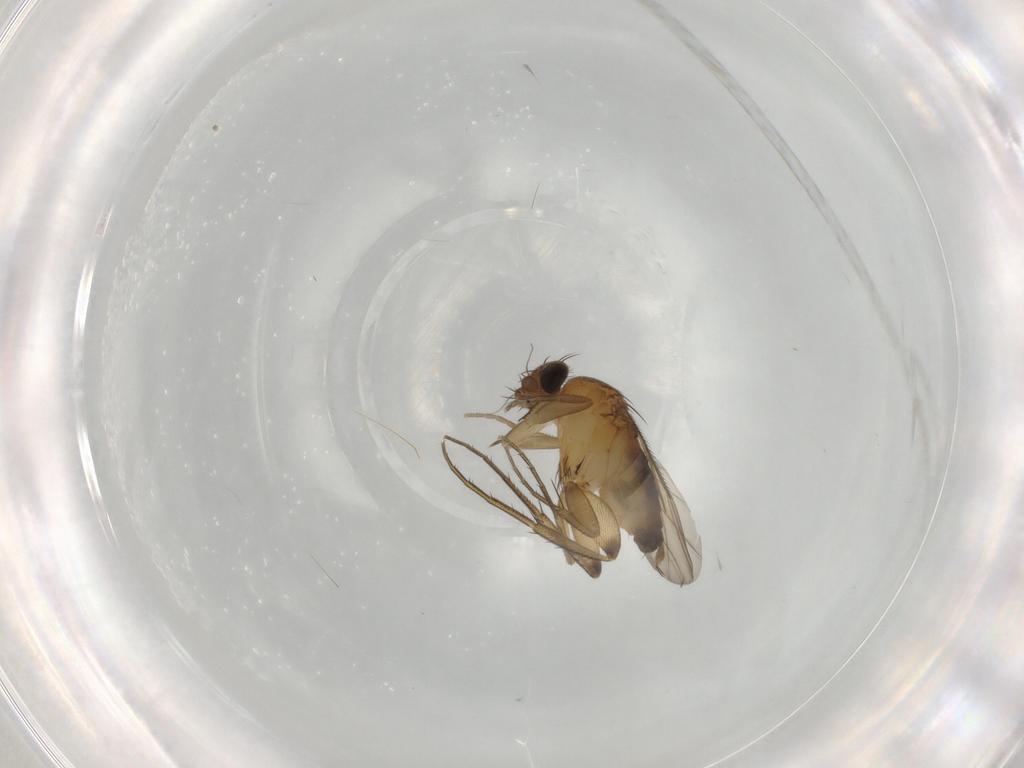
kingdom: Animalia
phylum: Arthropoda
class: Insecta
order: Diptera
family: Phoridae
